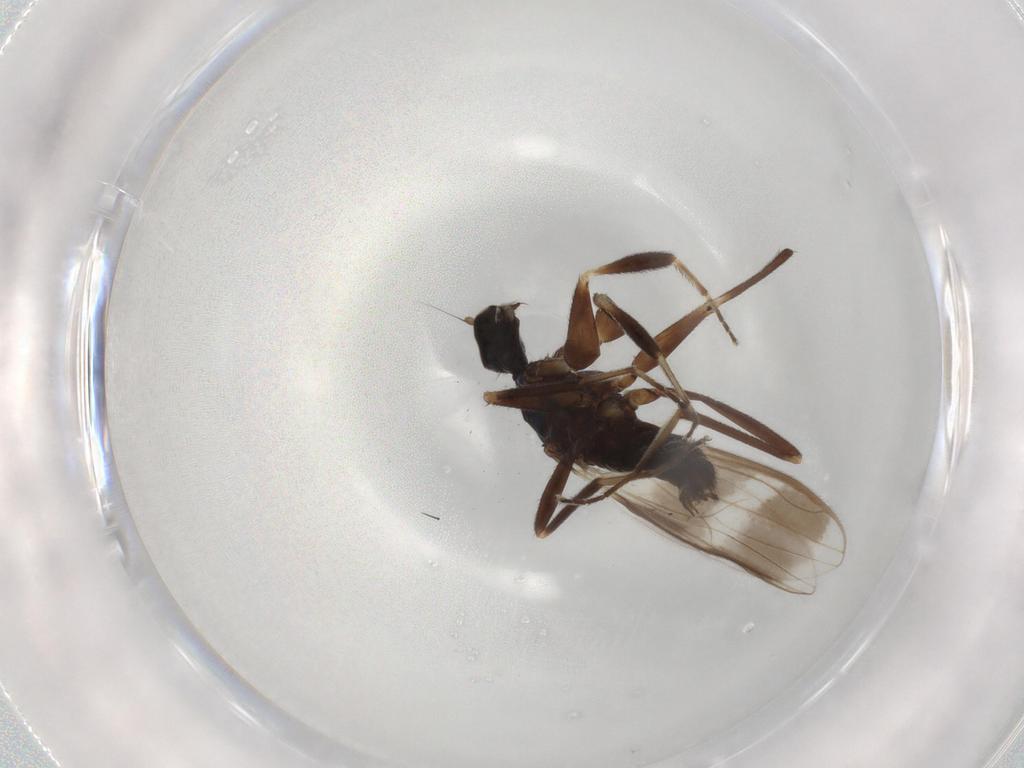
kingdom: Animalia
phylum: Arthropoda
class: Insecta
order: Diptera
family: Hybotidae
